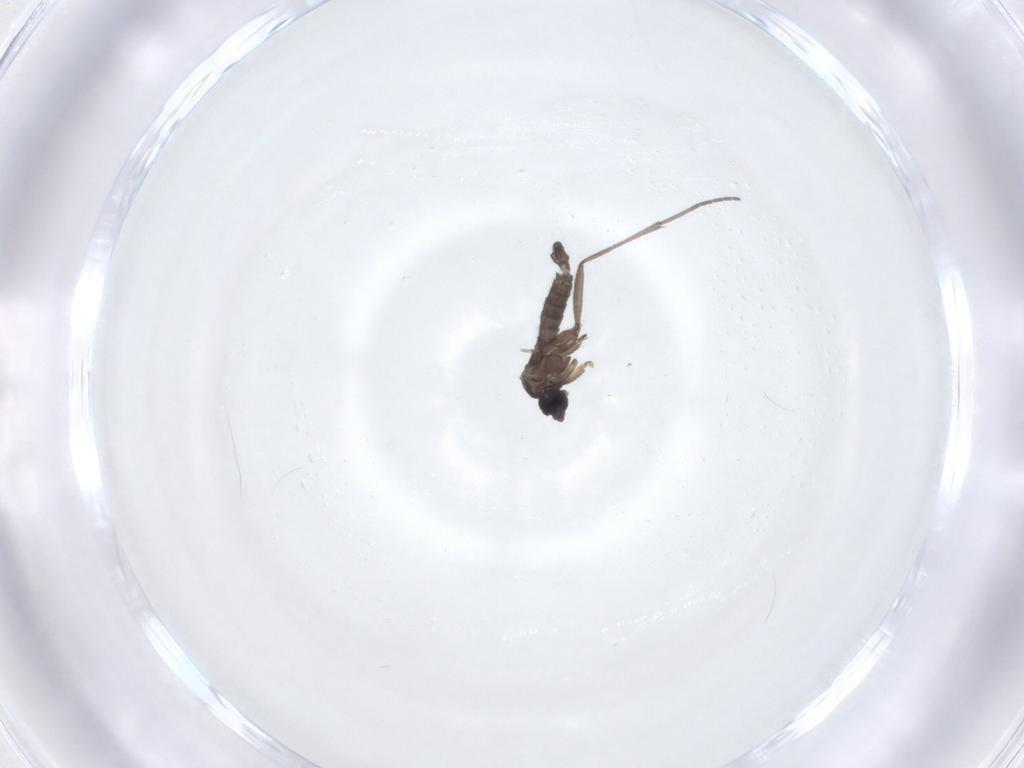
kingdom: Animalia
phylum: Arthropoda
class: Insecta
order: Diptera
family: Sciaridae
